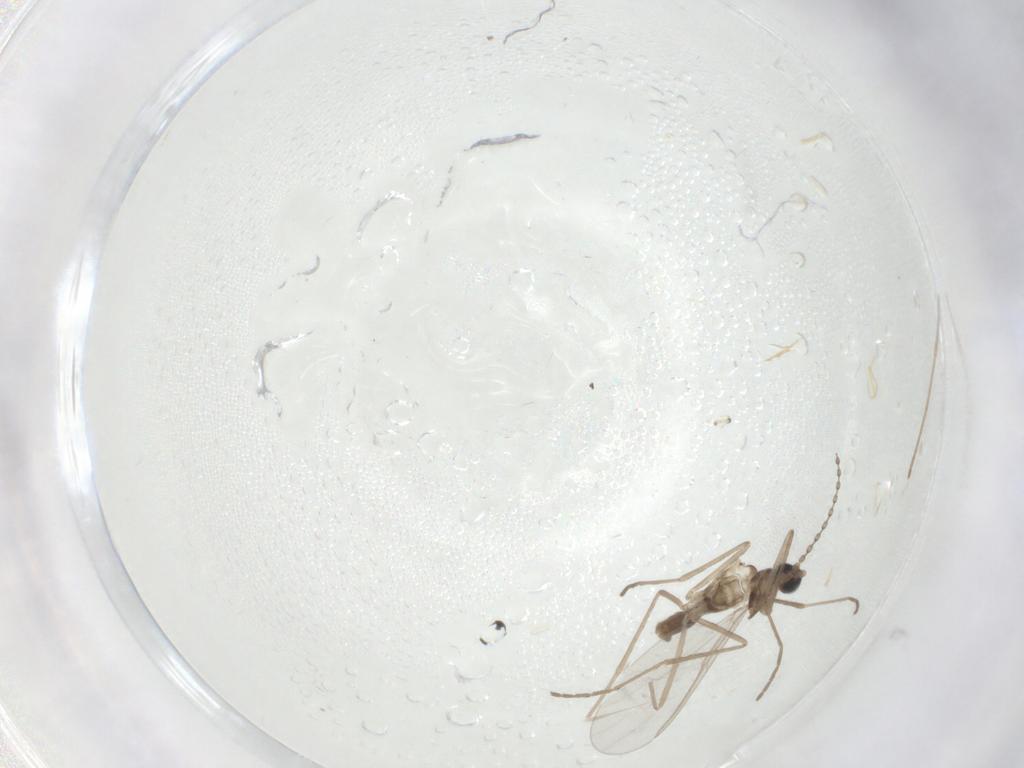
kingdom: Animalia
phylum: Arthropoda
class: Insecta
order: Diptera
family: Cecidomyiidae
